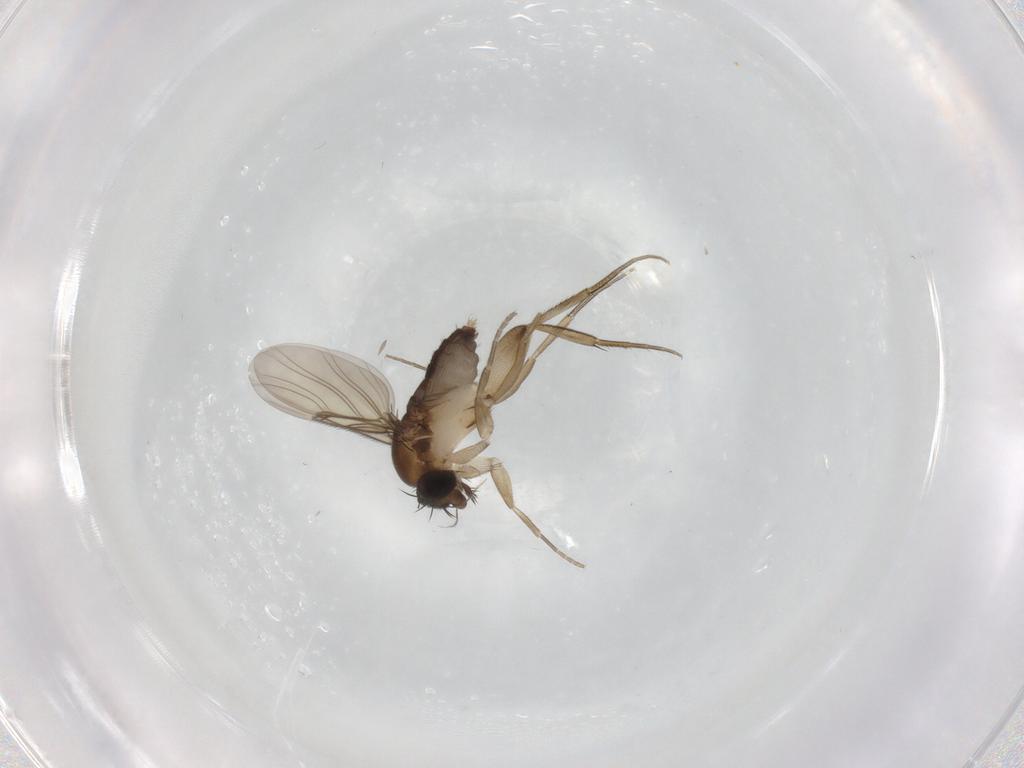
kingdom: Animalia
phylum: Arthropoda
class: Insecta
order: Diptera
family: Phoridae
